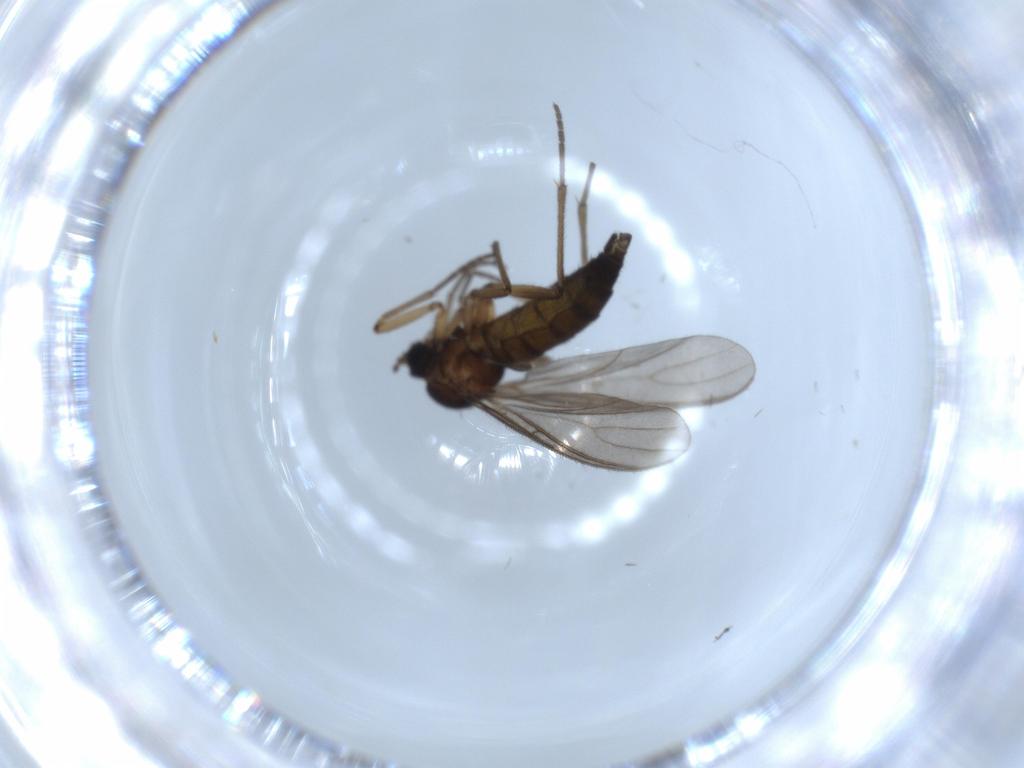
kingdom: Animalia
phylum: Arthropoda
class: Insecta
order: Diptera
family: Sciaridae
